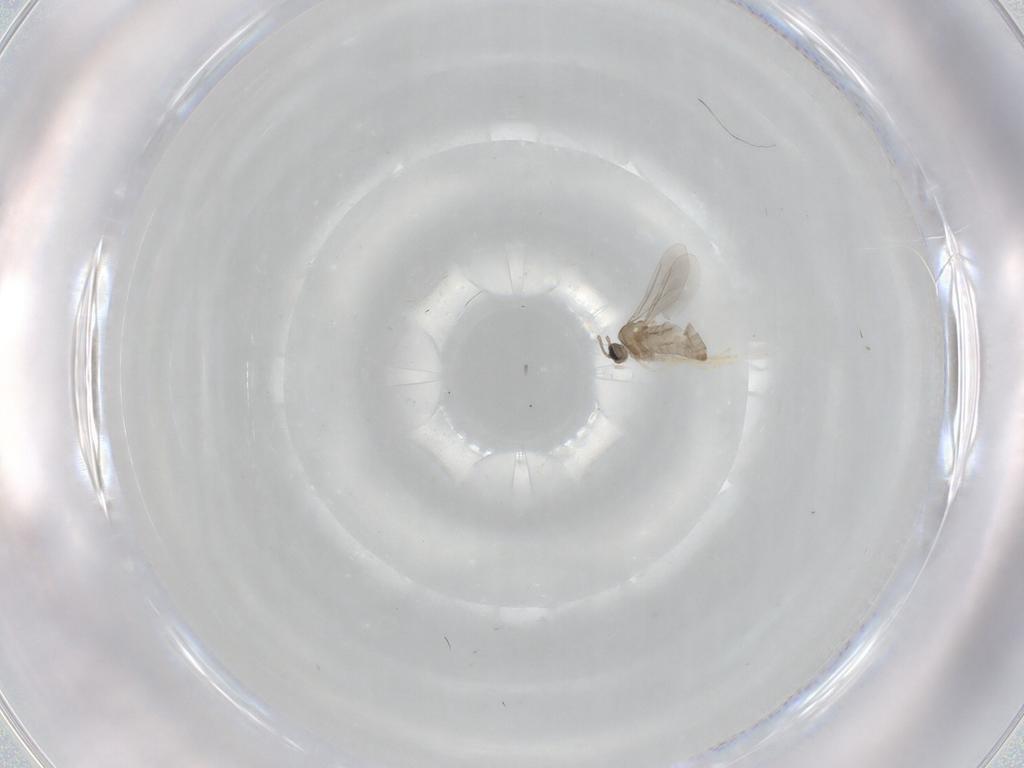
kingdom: Animalia
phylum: Arthropoda
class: Insecta
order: Diptera
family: Cecidomyiidae
